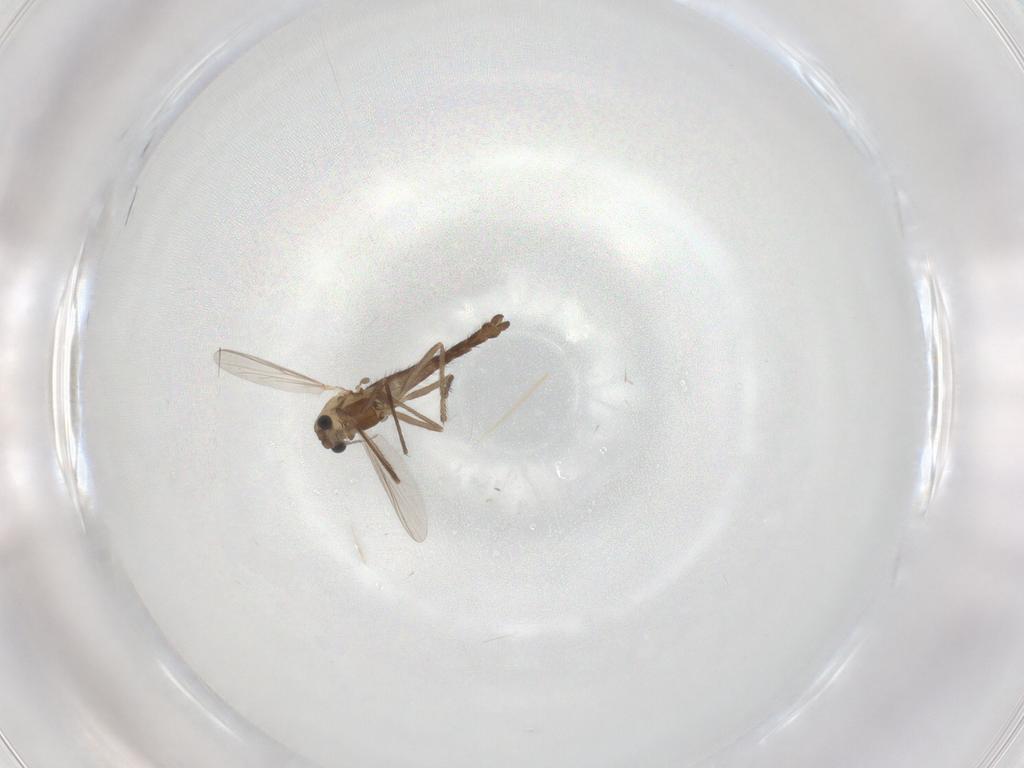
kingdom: Animalia
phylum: Arthropoda
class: Insecta
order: Diptera
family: Chironomidae
